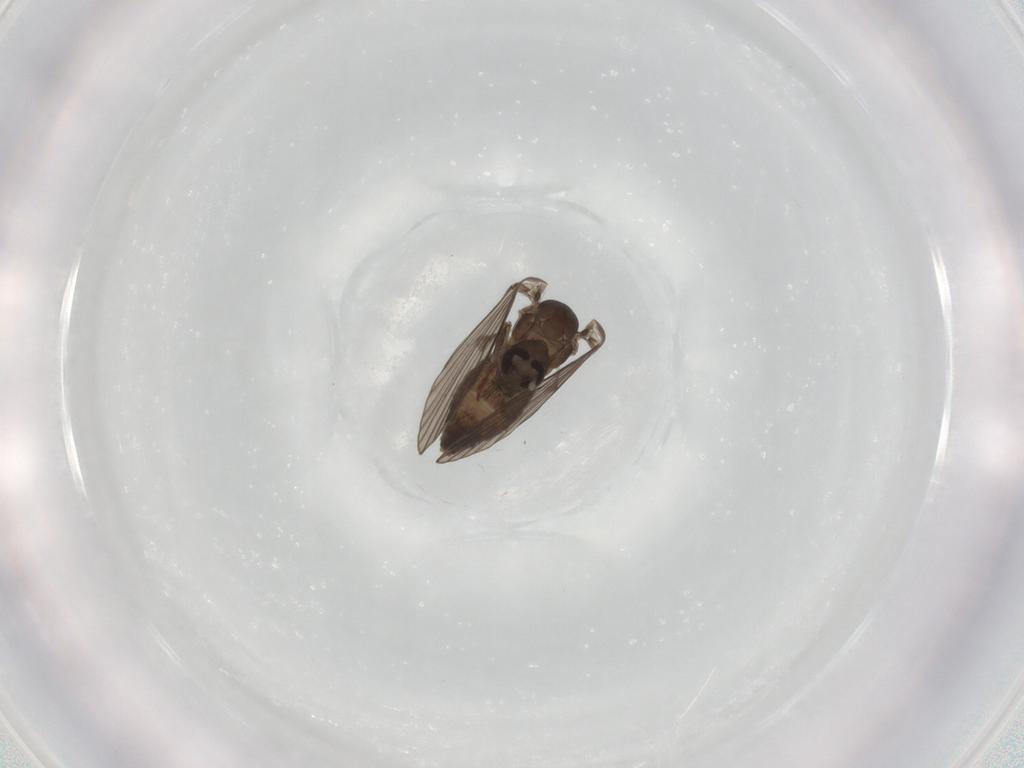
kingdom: Animalia
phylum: Arthropoda
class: Insecta
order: Diptera
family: Psychodidae
